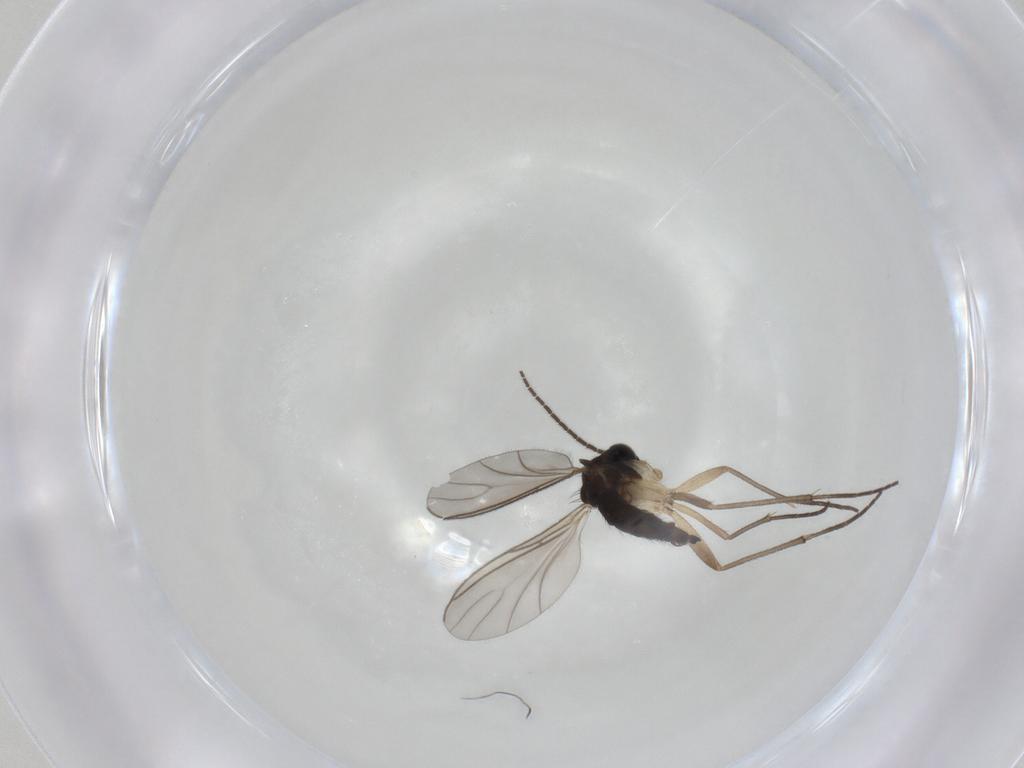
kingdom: Animalia
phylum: Arthropoda
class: Insecta
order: Diptera
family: Sciaridae
